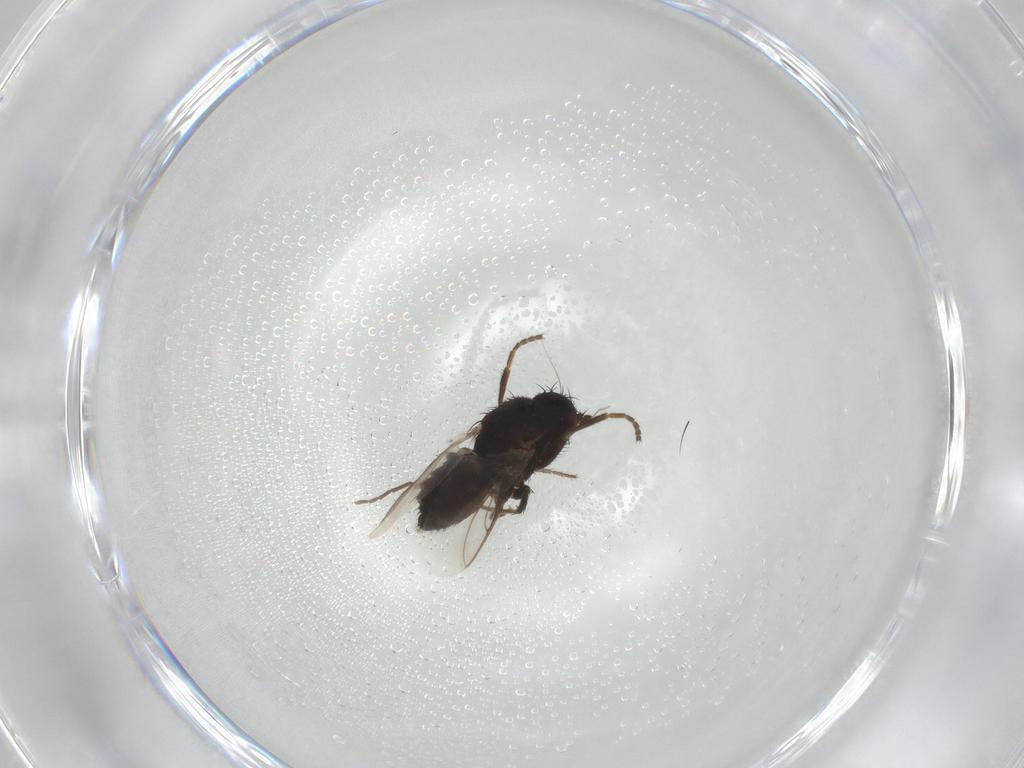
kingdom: Animalia
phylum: Arthropoda
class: Insecta
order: Diptera
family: Sphaeroceridae
